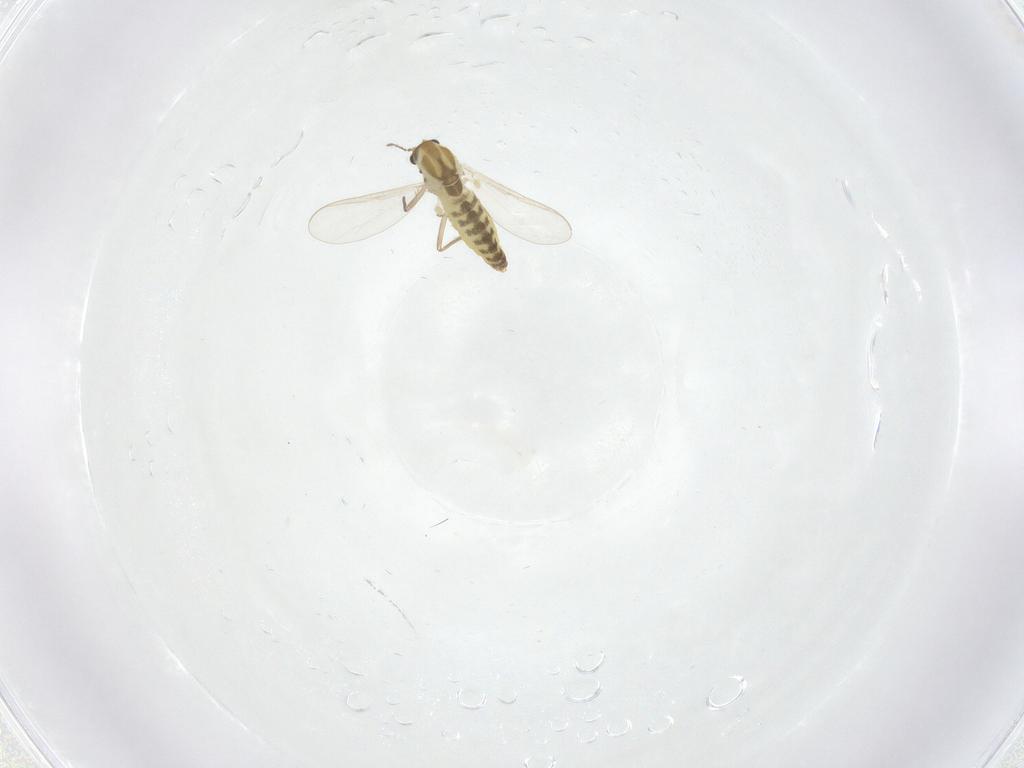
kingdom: Animalia
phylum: Arthropoda
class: Insecta
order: Diptera
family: Chironomidae
